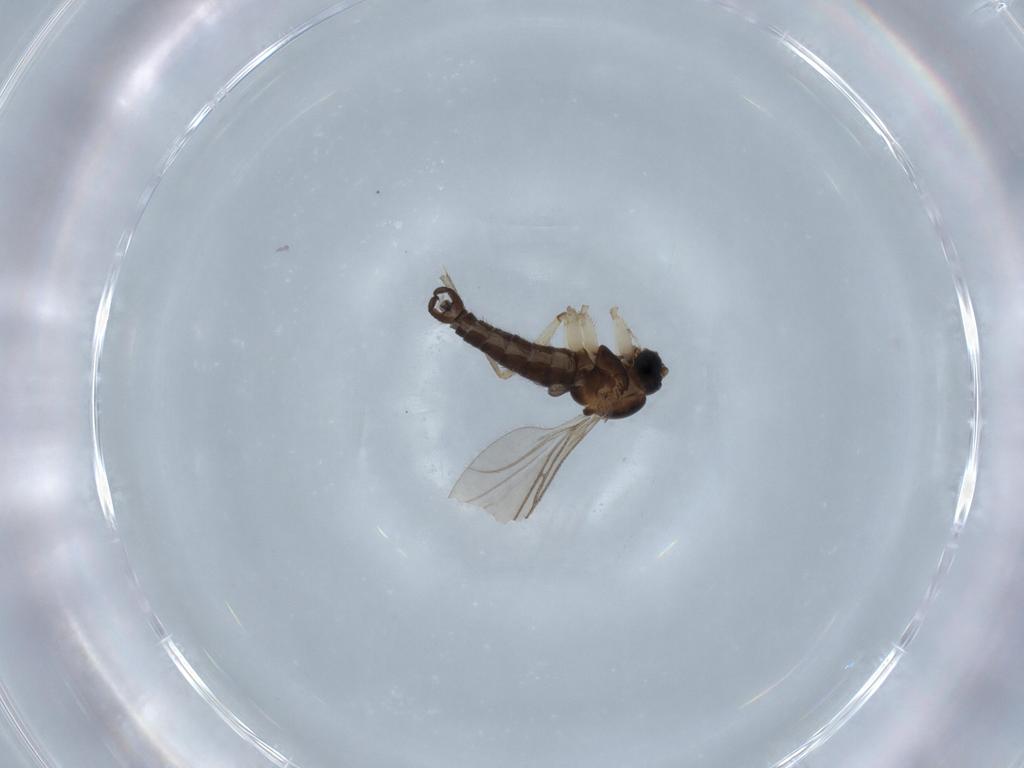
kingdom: Animalia
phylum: Arthropoda
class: Insecta
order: Diptera
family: Sciaridae
